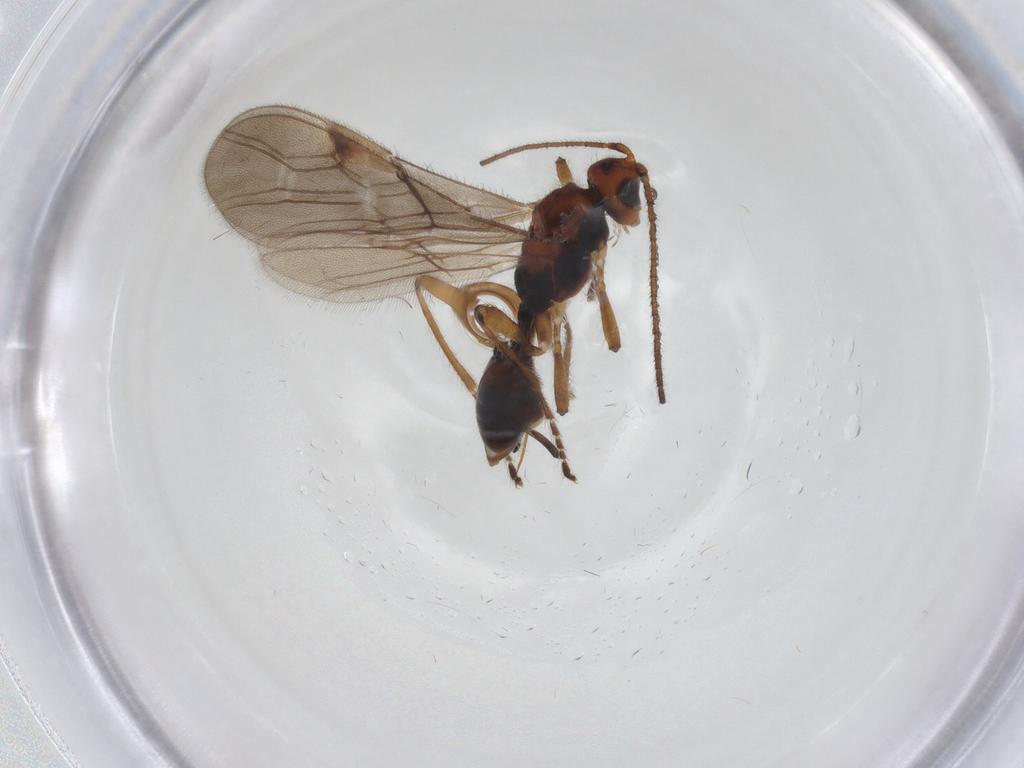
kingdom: Animalia
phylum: Arthropoda
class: Insecta
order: Hymenoptera
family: Braconidae
